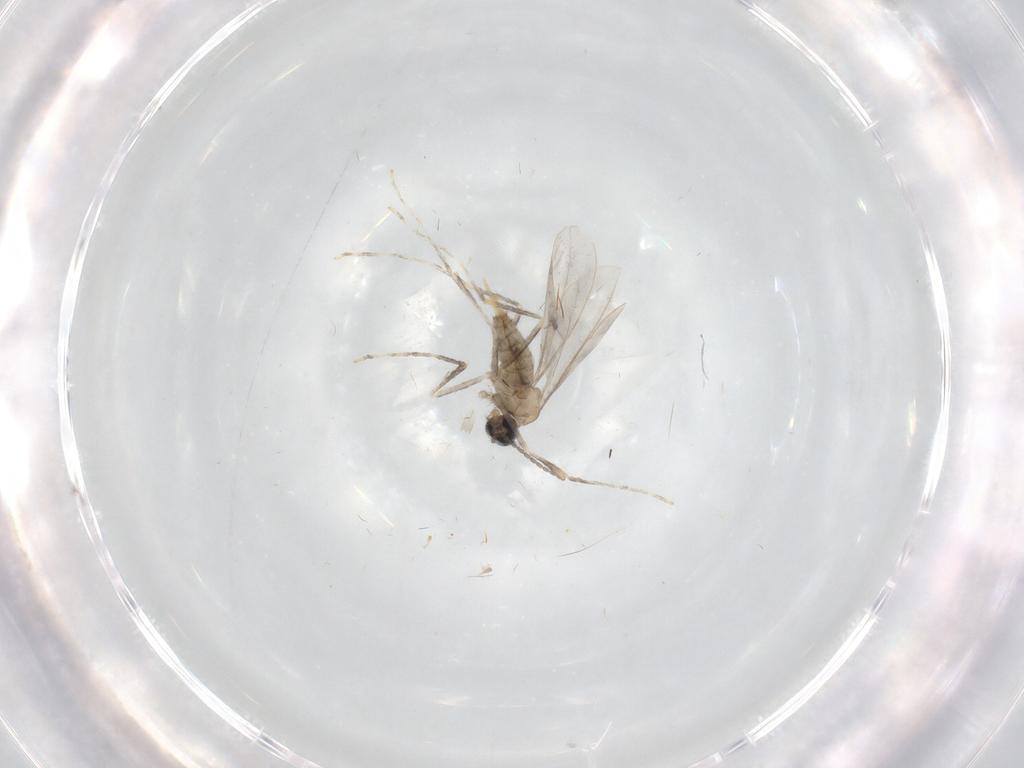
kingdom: Animalia
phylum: Arthropoda
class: Insecta
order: Diptera
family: Cecidomyiidae
